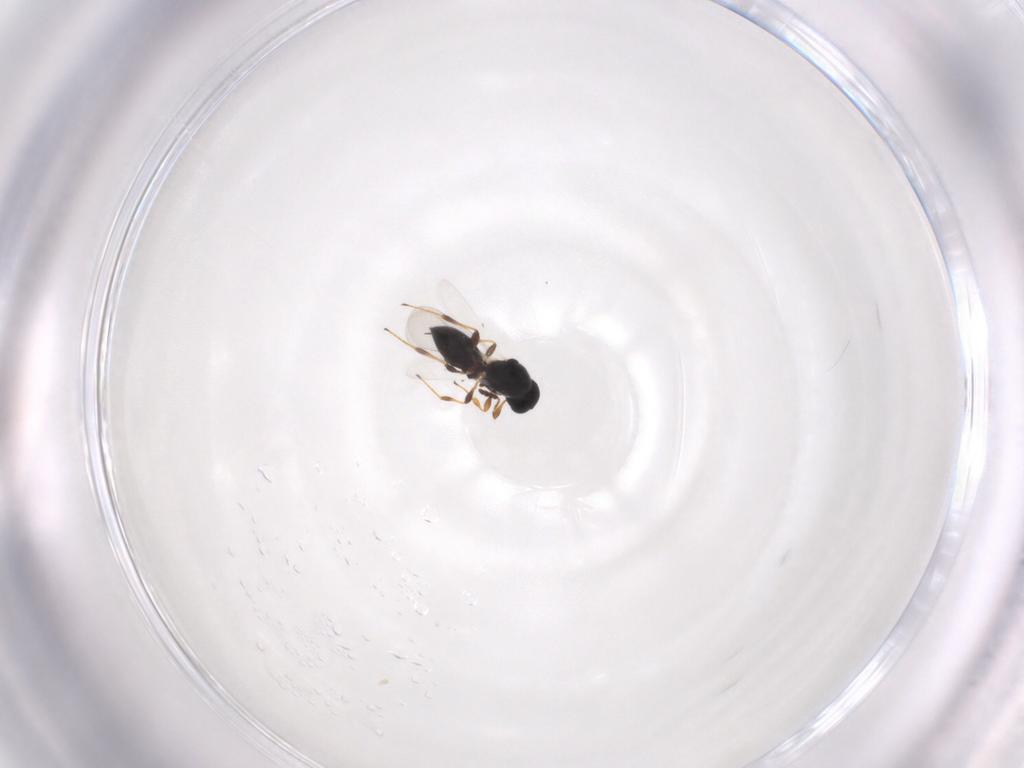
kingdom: Animalia
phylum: Arthropoda
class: Insecta
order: Hymenoptera
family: Platygastridae
